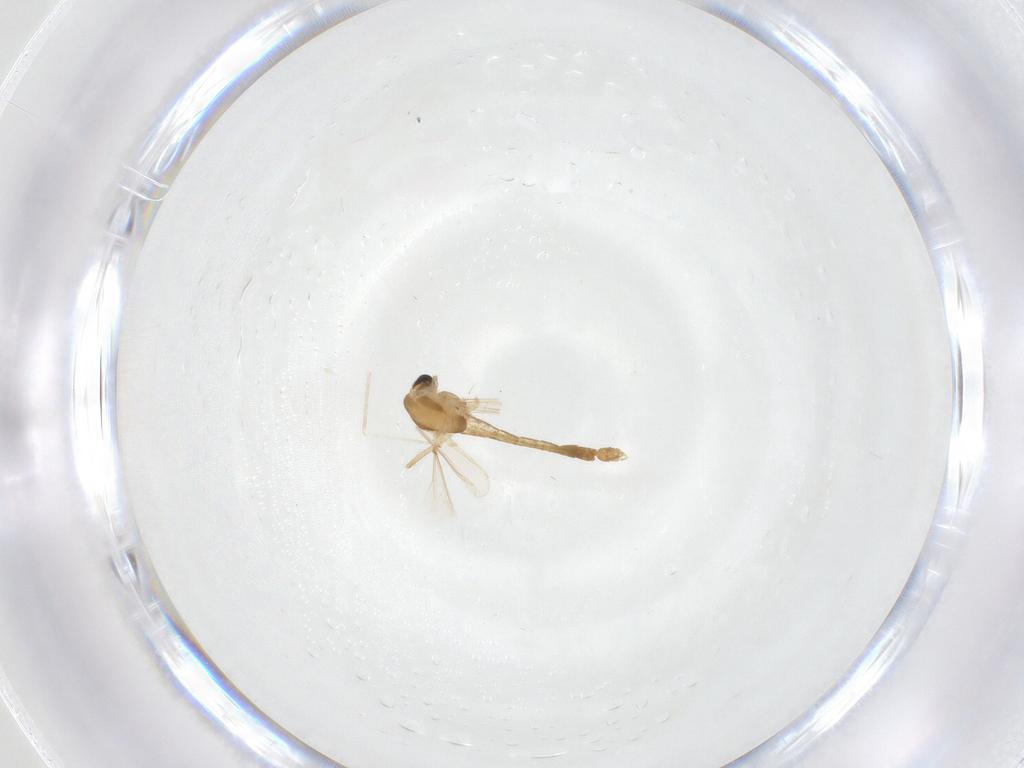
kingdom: Animalia
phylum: Arthropoda
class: Insecta
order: Diptera
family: Chironomidae
